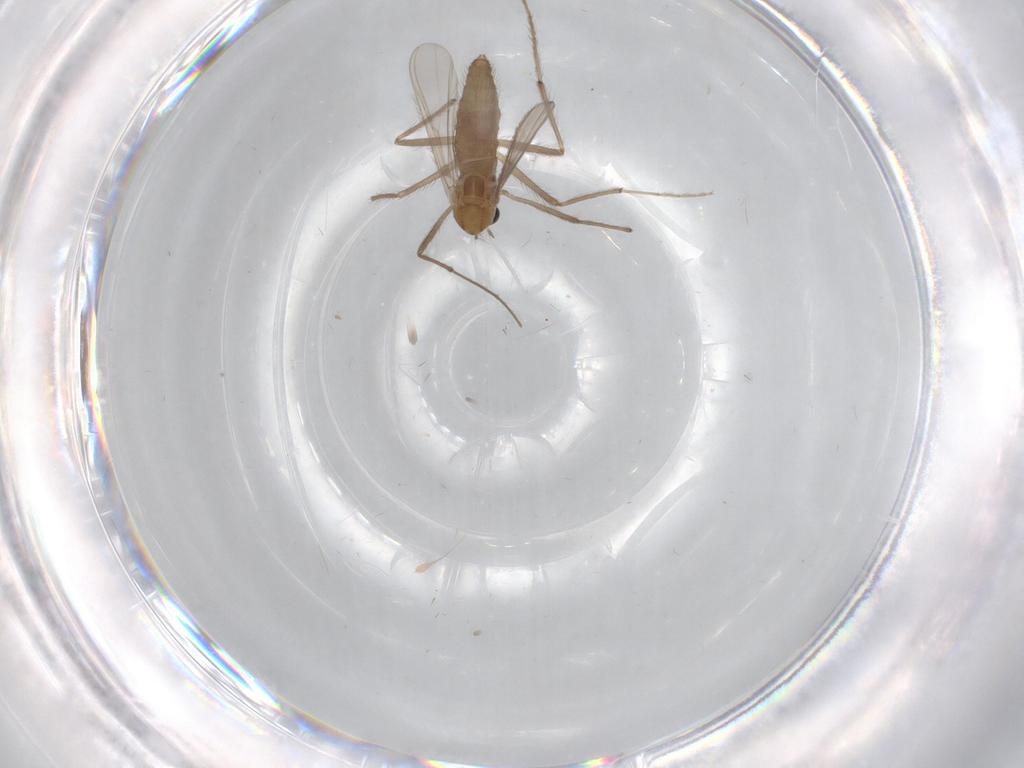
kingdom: Animalia
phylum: Arthropoda
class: Insecta
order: Diptera
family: Chironomidae
